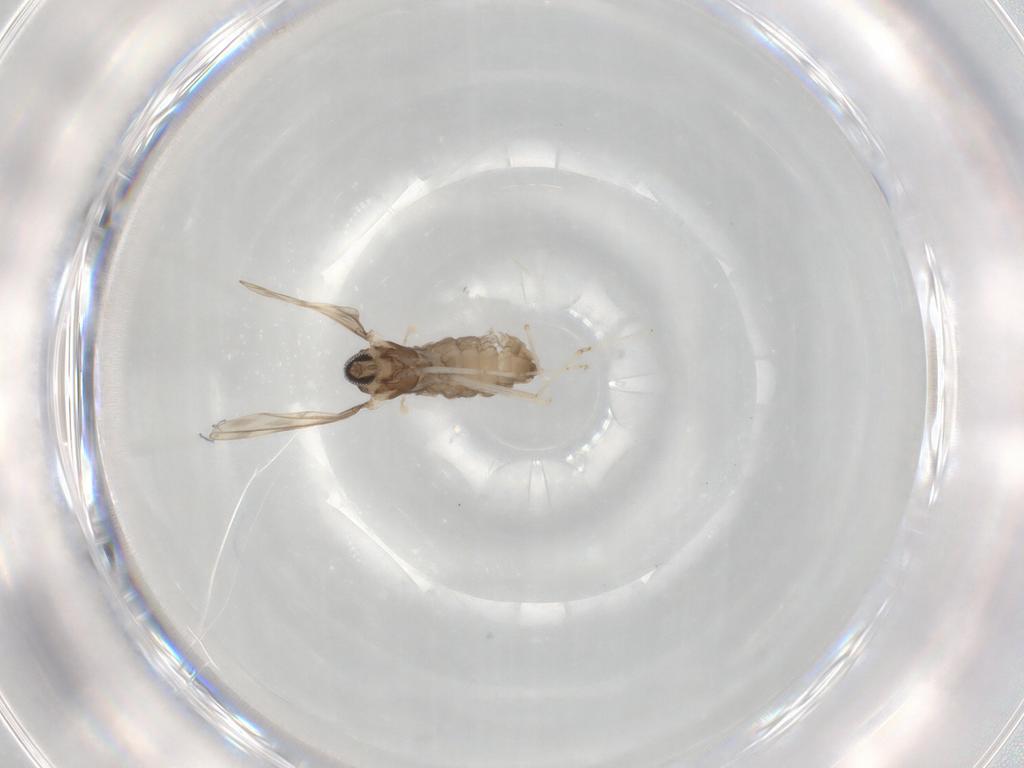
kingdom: Animalia
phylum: Arthropoda
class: Insecta
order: Diptera
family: Cecidomyiidae
